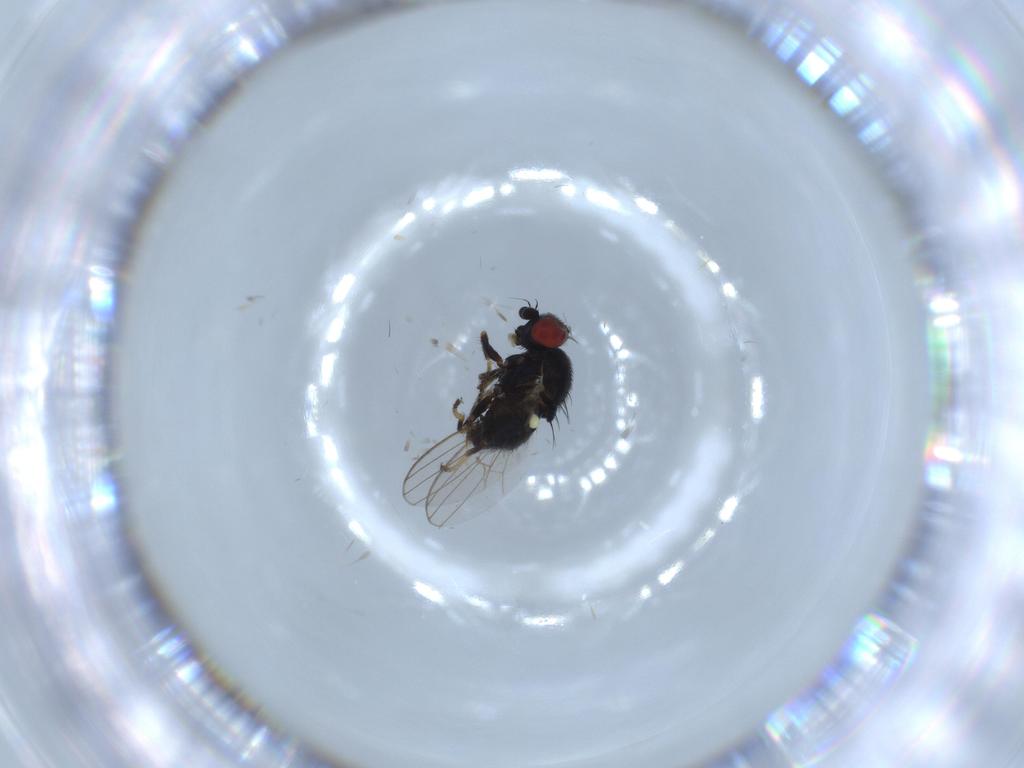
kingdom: Animalia
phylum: Arthropoda
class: Insecta
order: Diptera
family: Chamaemyiidae
